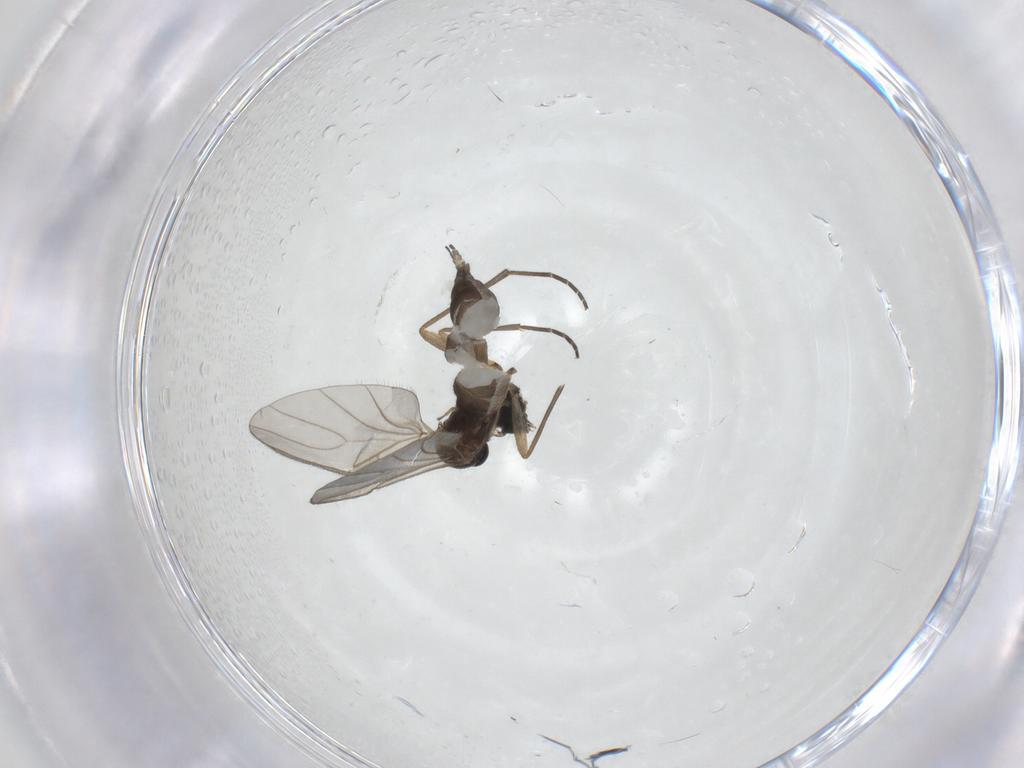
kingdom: Animalia
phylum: Arthropoda
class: Insecta
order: Diptera
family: Sciaridae
